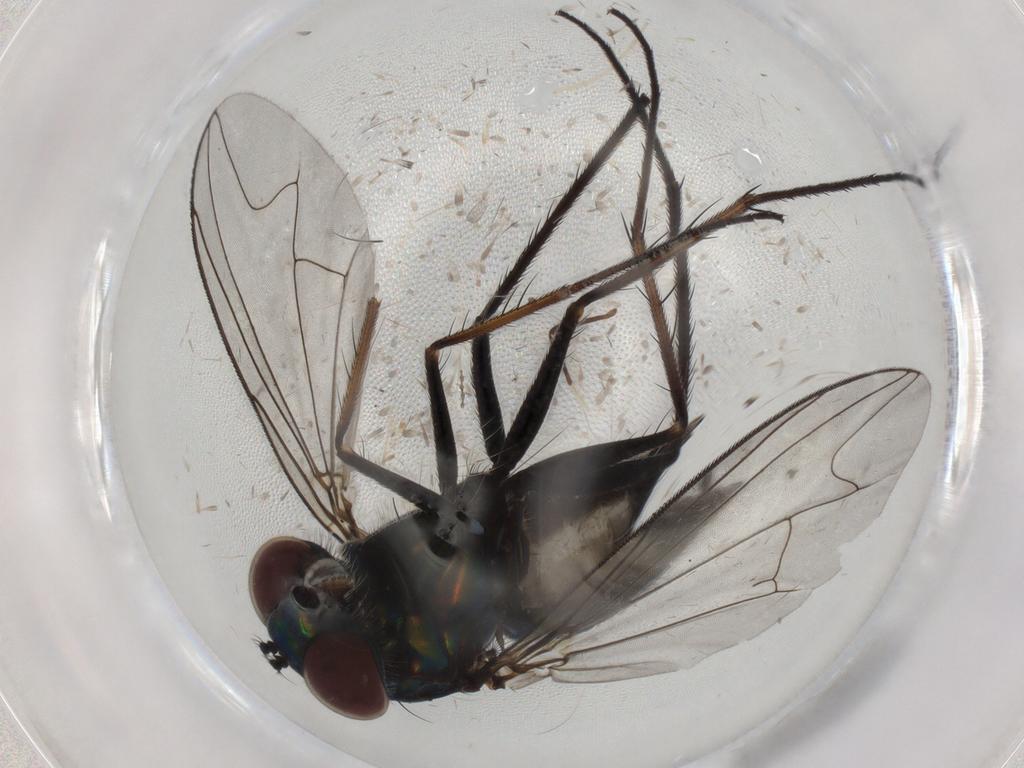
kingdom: Animalia
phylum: Arthropoda
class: Insecta
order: Diptera
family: Dolichopodidae
